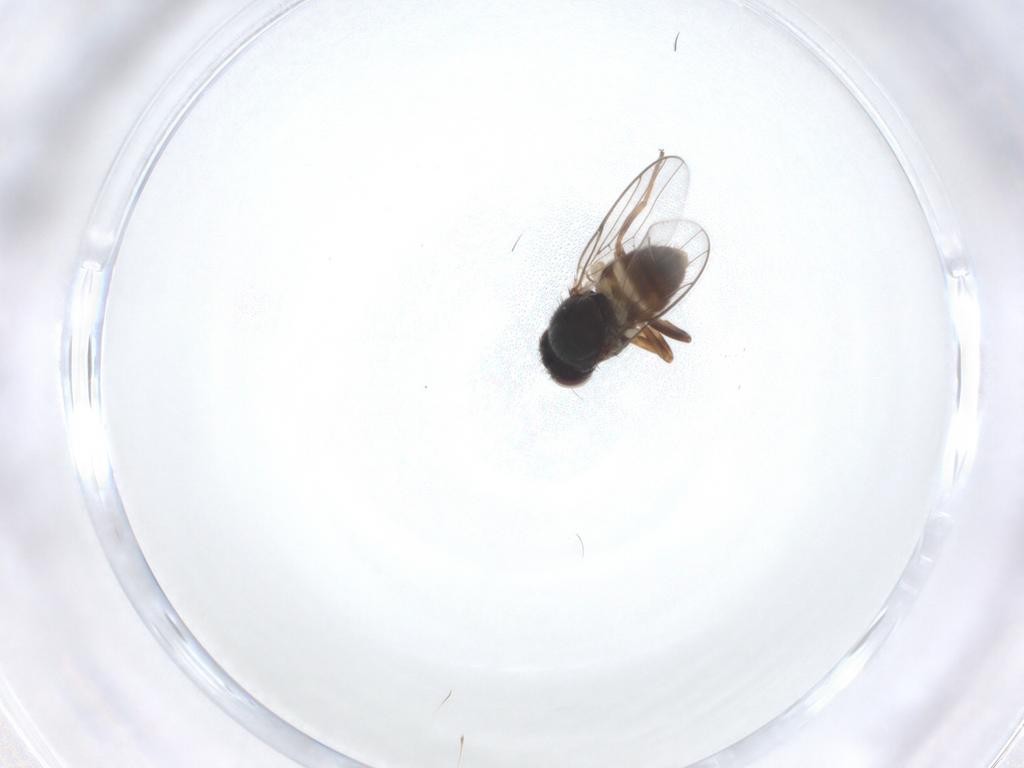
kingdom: Animalia
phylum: Arthropoda
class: Insecta
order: Diptera
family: Chloropidae
